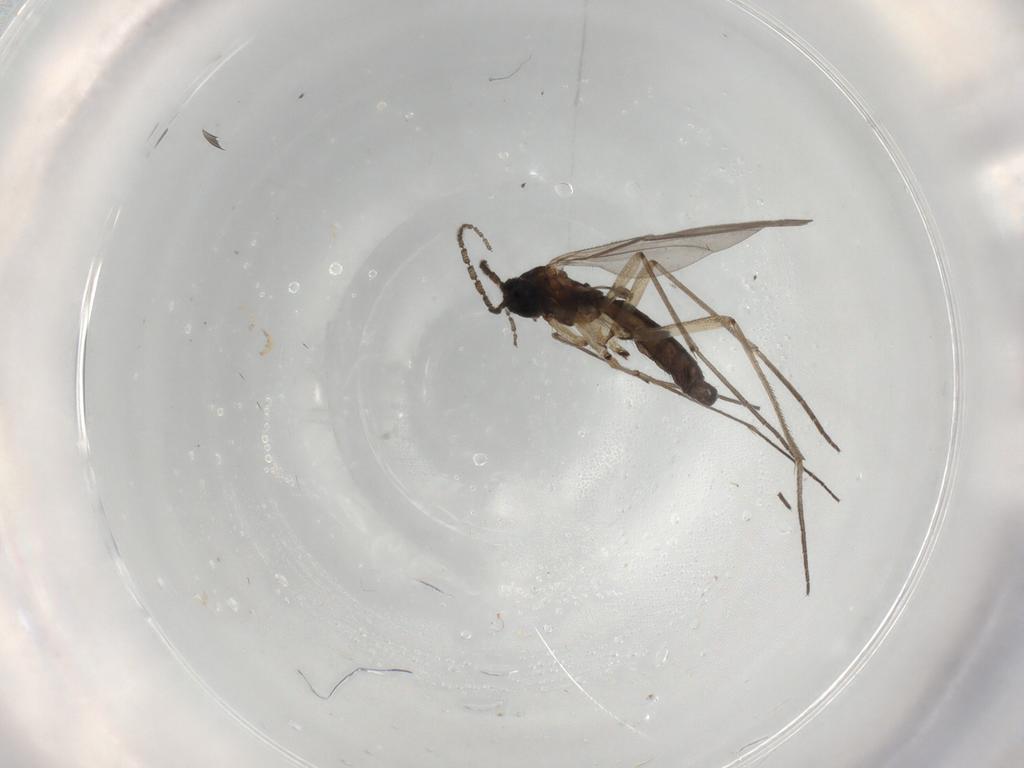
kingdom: Animalia
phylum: Arthropoda
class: Insecta
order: Diptera
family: Sciaridae
